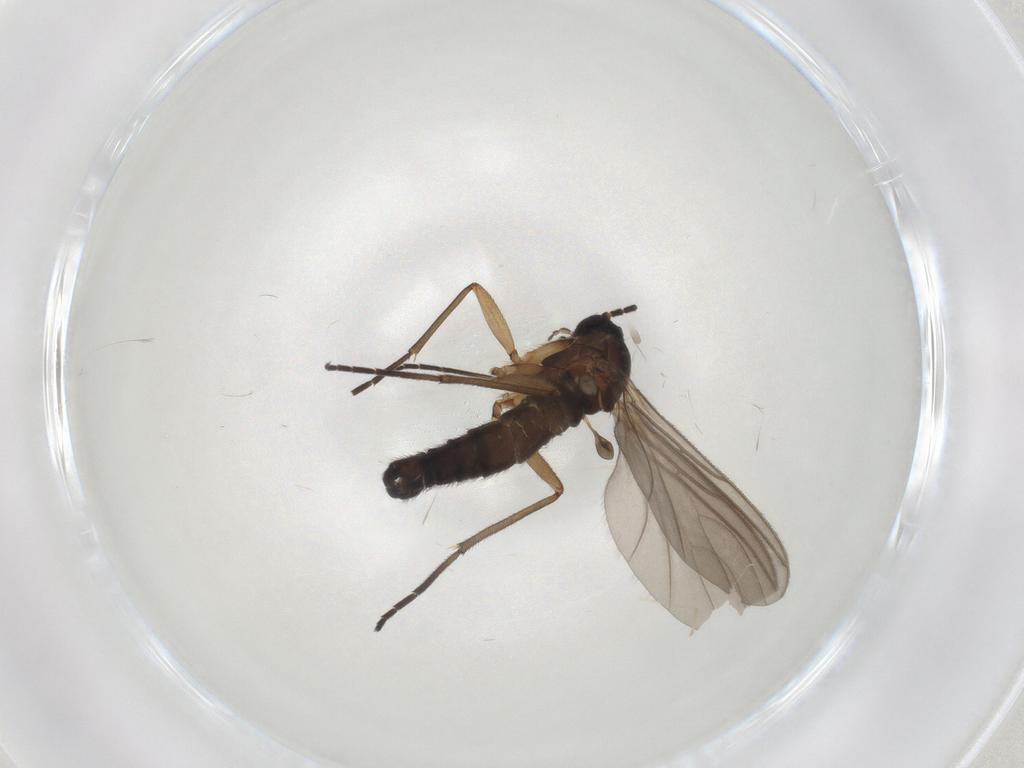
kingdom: Animalia
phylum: Arthropoda
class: Insecta
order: Diptera
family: Sciaridae
